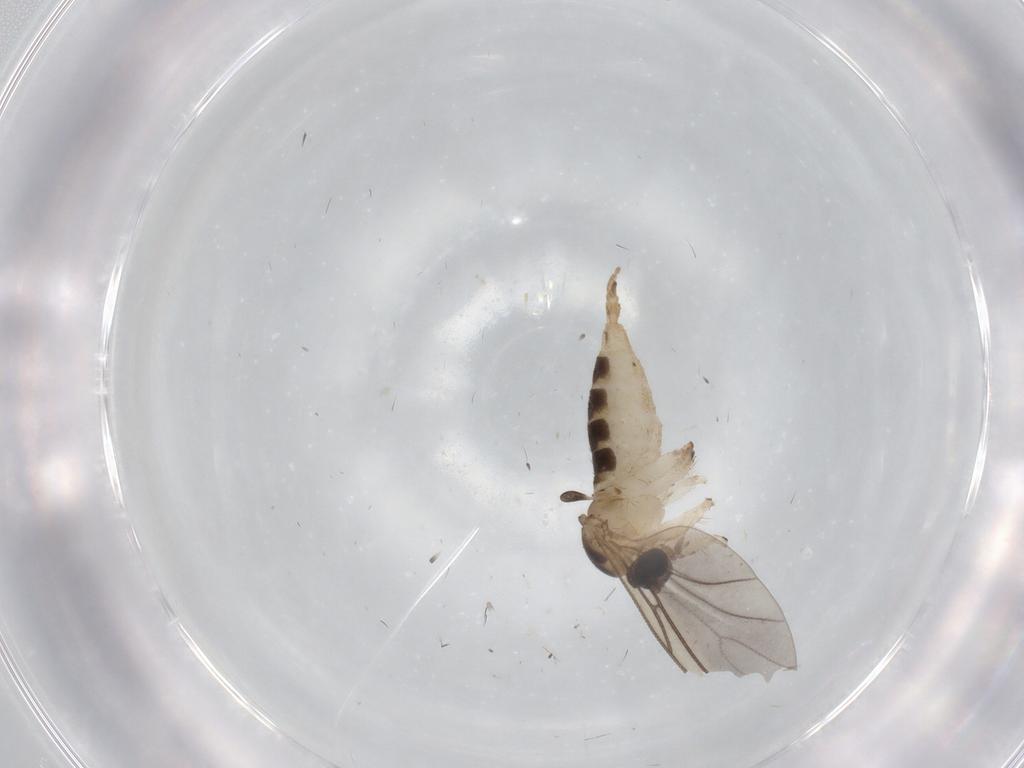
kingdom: Animalia
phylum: Arthropoda
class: Insecta
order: Diptera
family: Sciaridae
